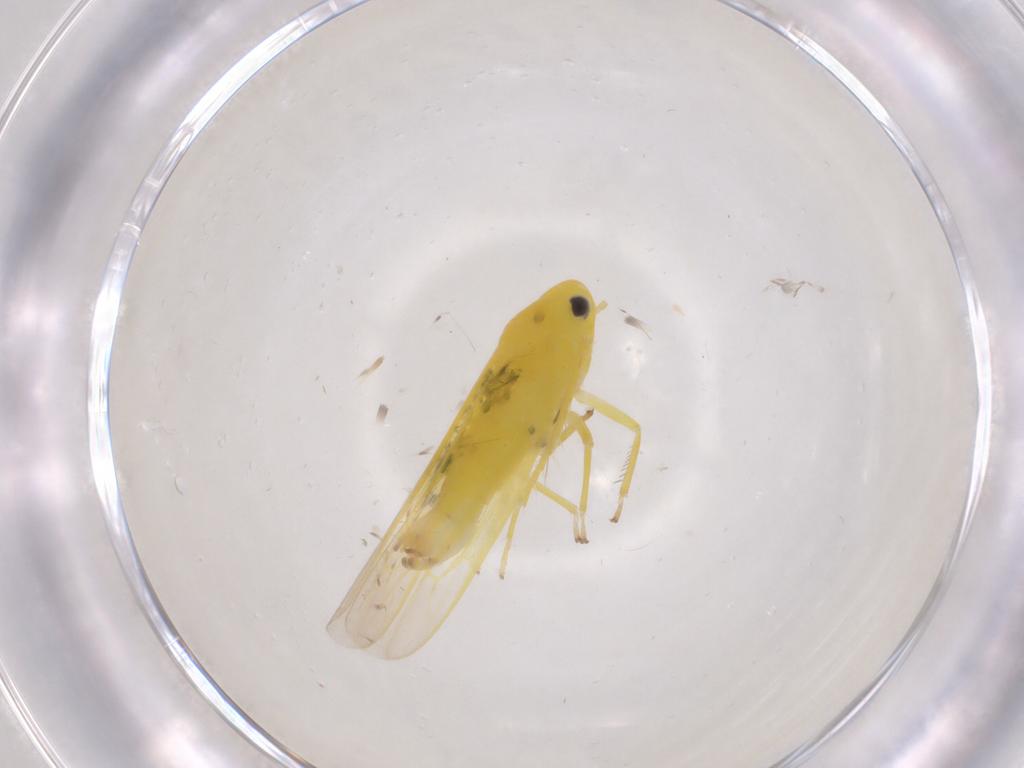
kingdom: Animalia
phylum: Arthropoda
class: Insecta
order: Hemiptera
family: Cicadellidae
